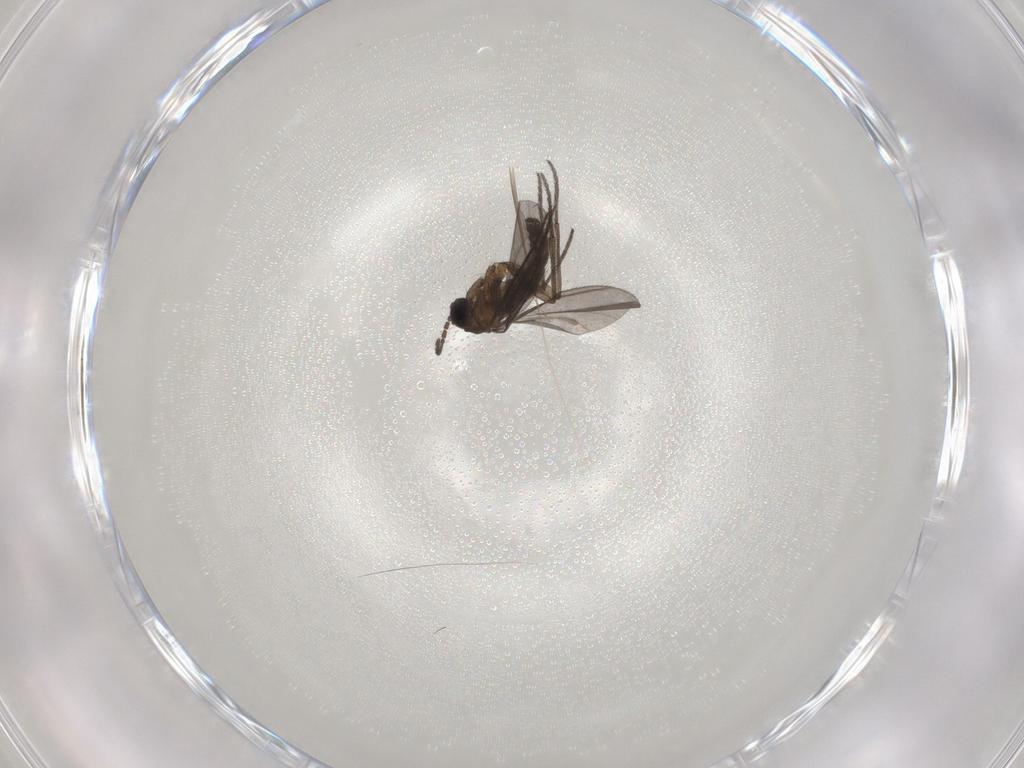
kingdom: Animalia
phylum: Arthropoda
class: Insecta
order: Diptera
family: Sciaridae
